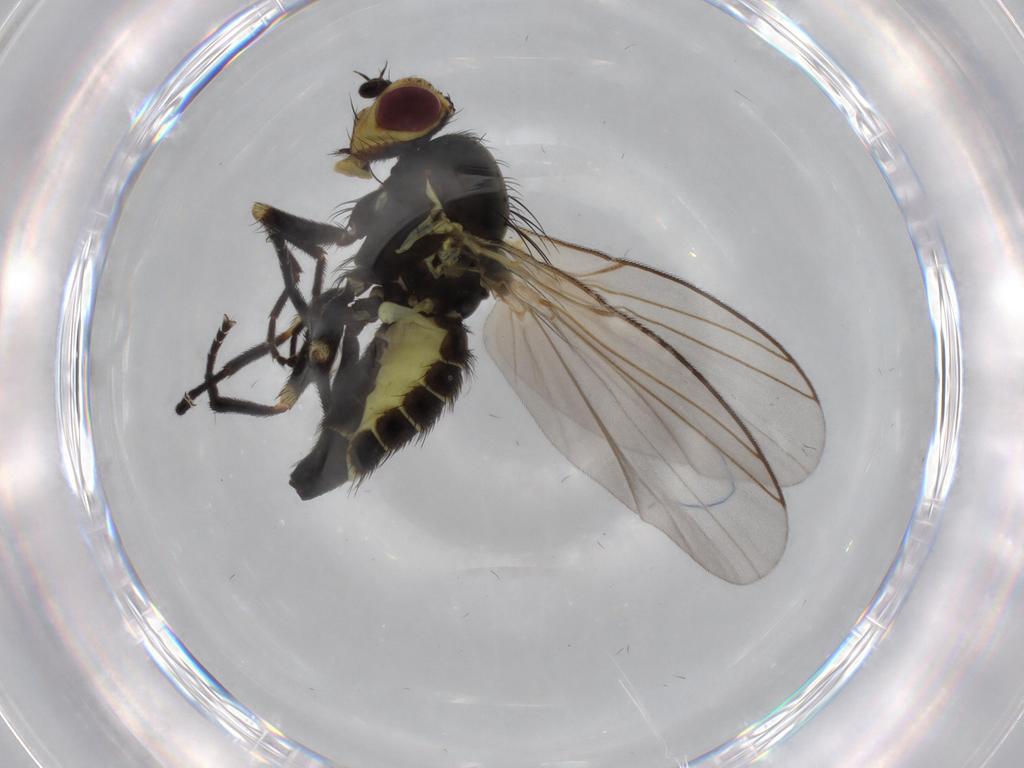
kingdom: Animalia
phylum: Arthropoda
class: Insecta
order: Diptera
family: Agromyzidae
